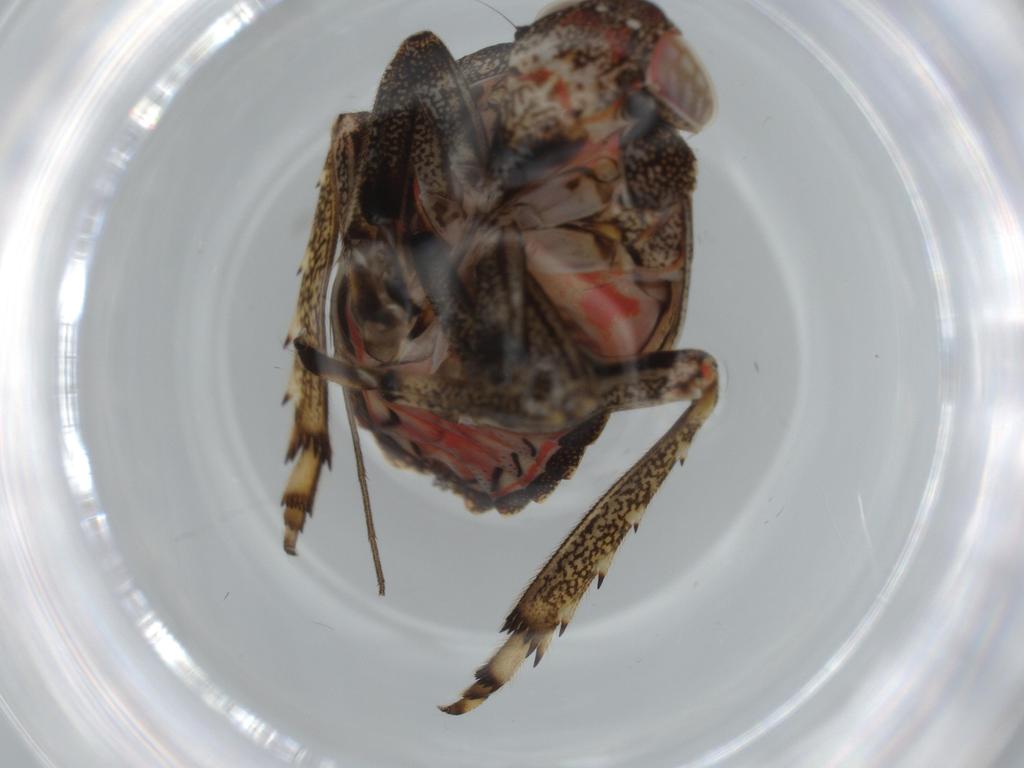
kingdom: Animalia
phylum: Arthropoda
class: Insecta
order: Hemiptera
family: Issidae
